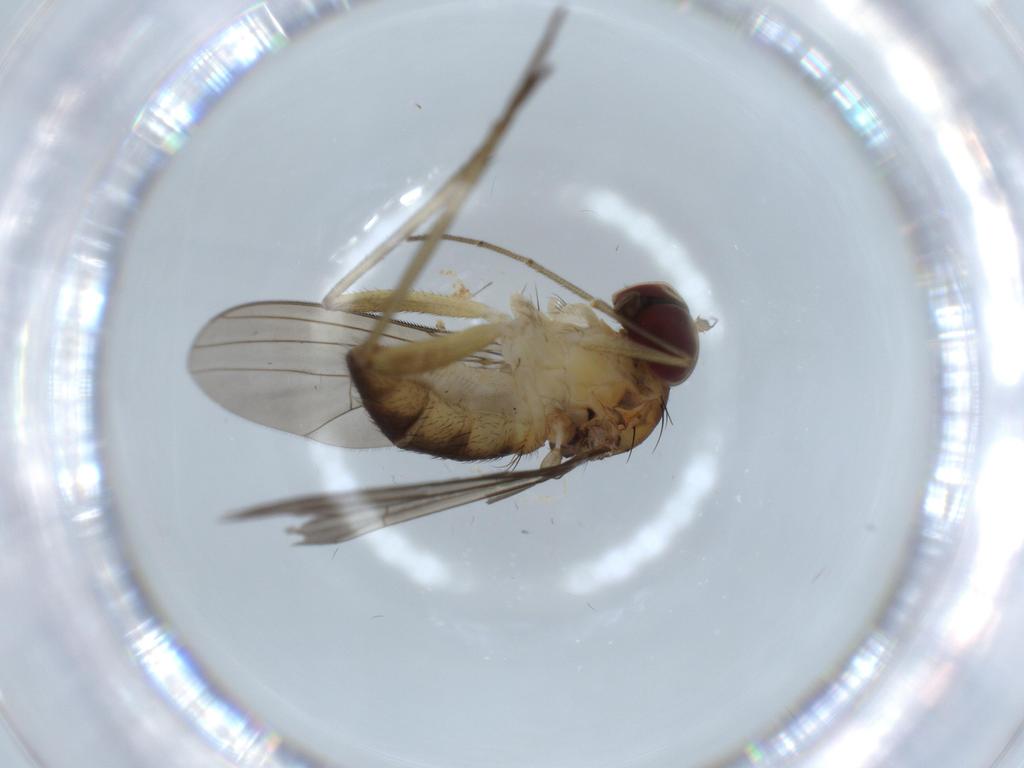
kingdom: Animalia
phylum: Arthropoda
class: Insecta
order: Diptera
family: Dolichopodidae
